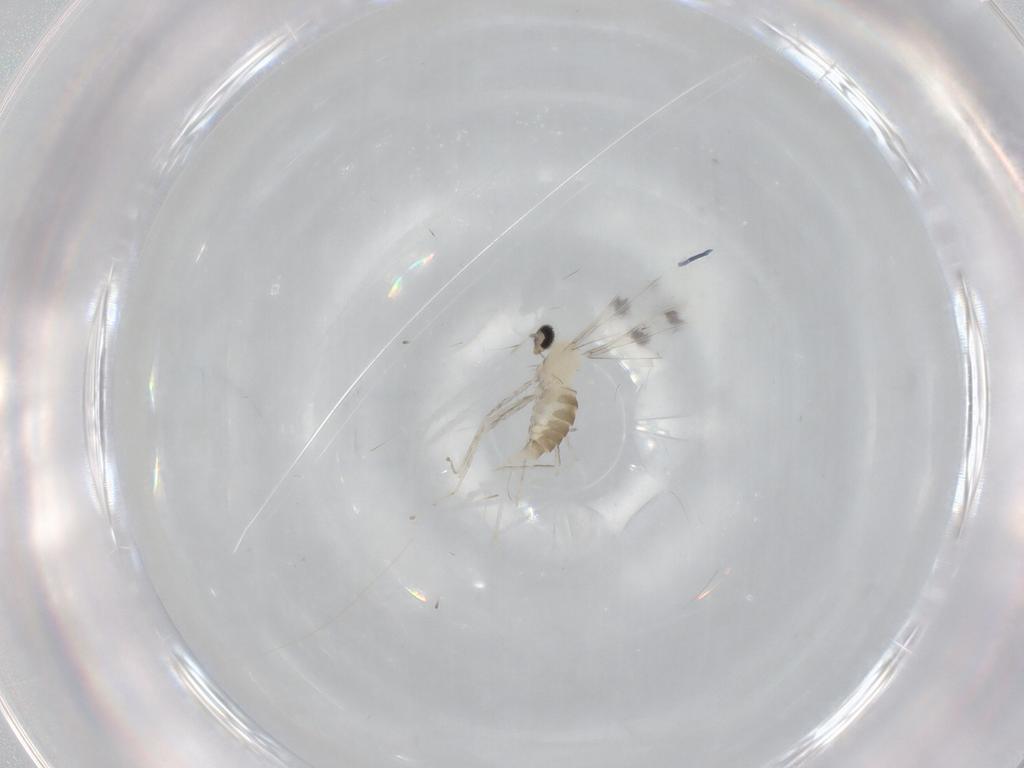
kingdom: Animalia
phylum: Arthropoda
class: Insecta
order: Diptera
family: Cecidomyiidae
